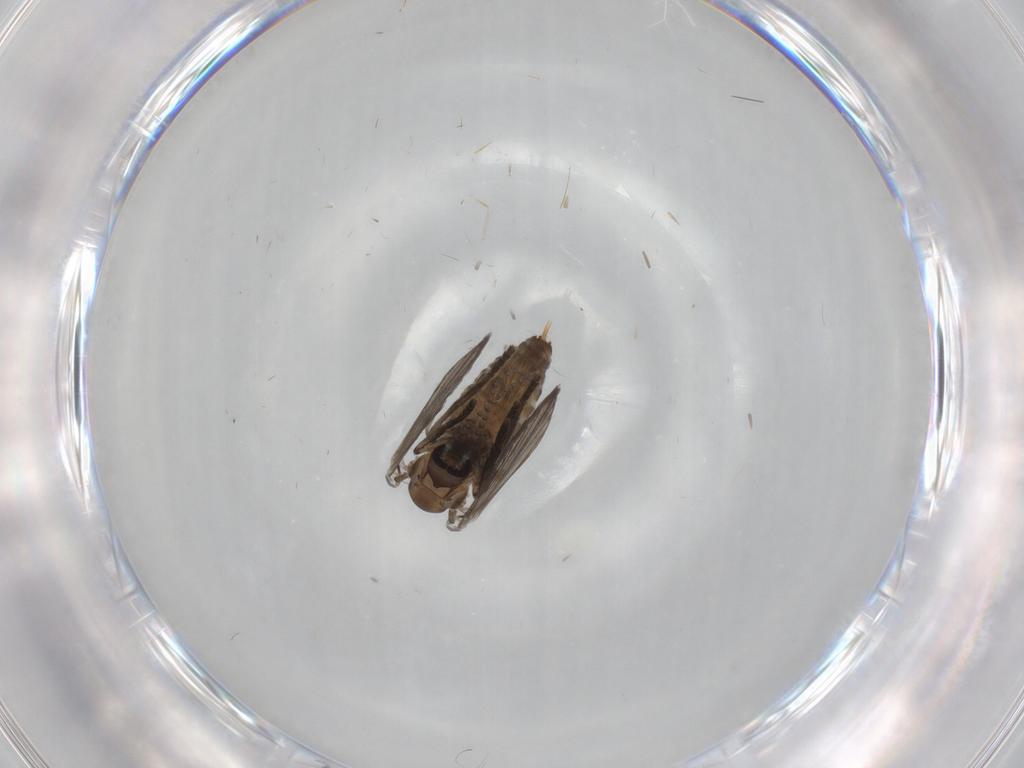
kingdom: Animalia
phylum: Arthropoda
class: Insecta
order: Diptera
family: Psychodidae
